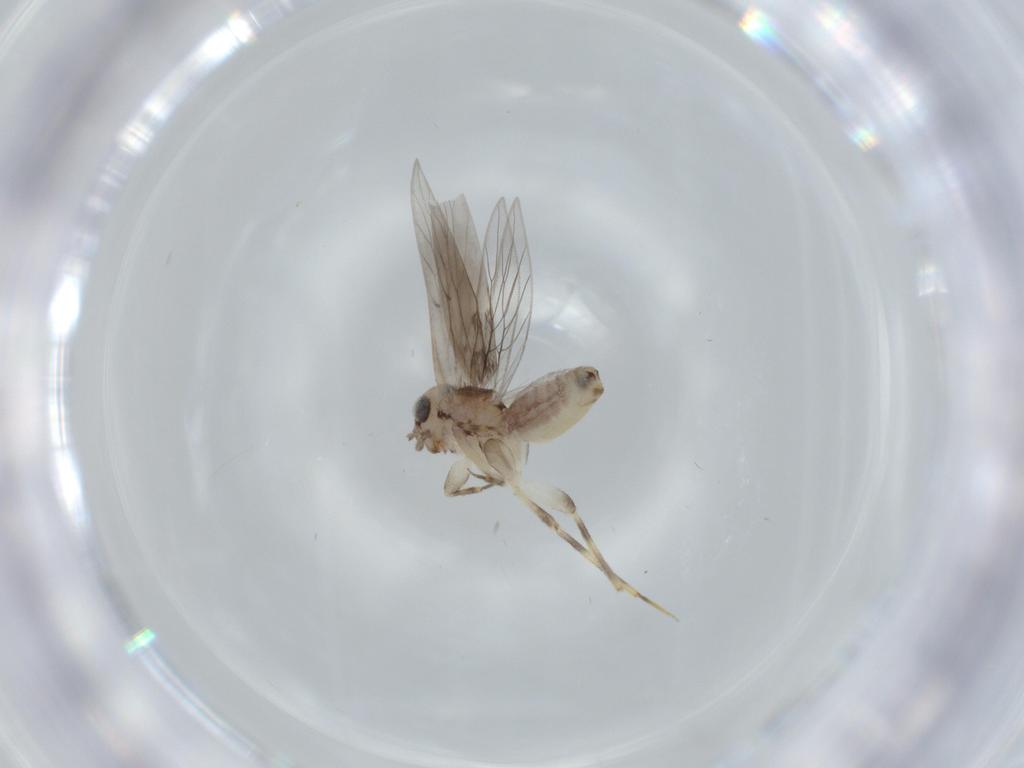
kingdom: Animalia
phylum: Arthropoda
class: Insecta
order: Psocodea
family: Lepidopsocidae
